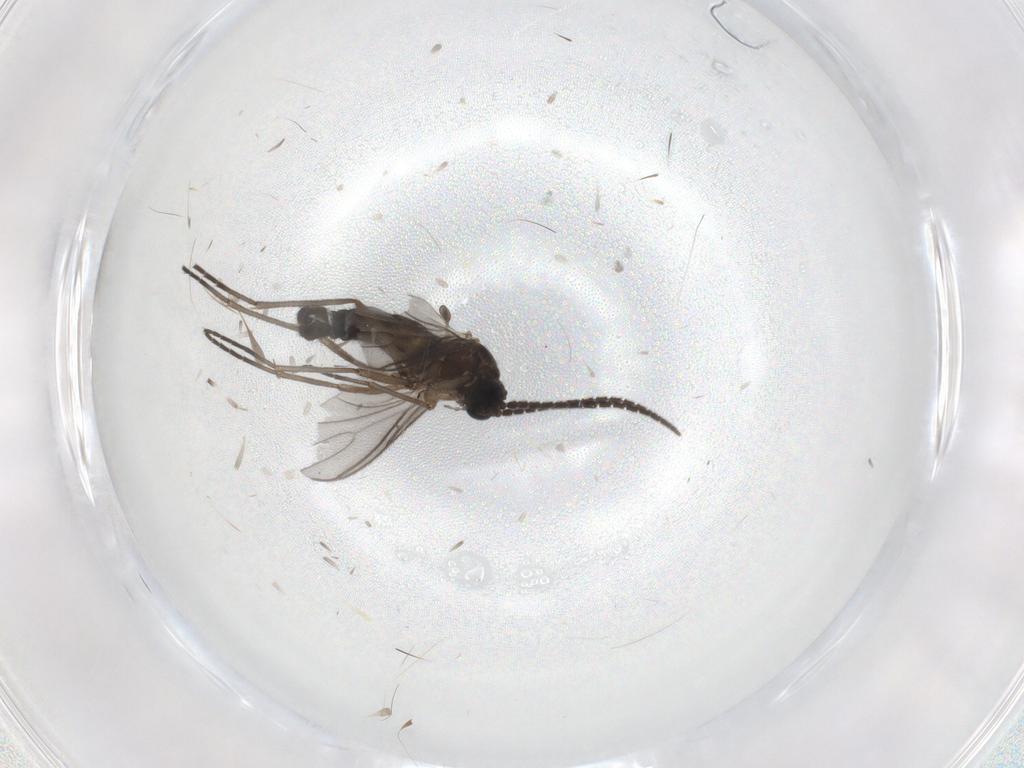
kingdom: Animalia
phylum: Arthropoda
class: Insecta
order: Diptera
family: Sciaridae
